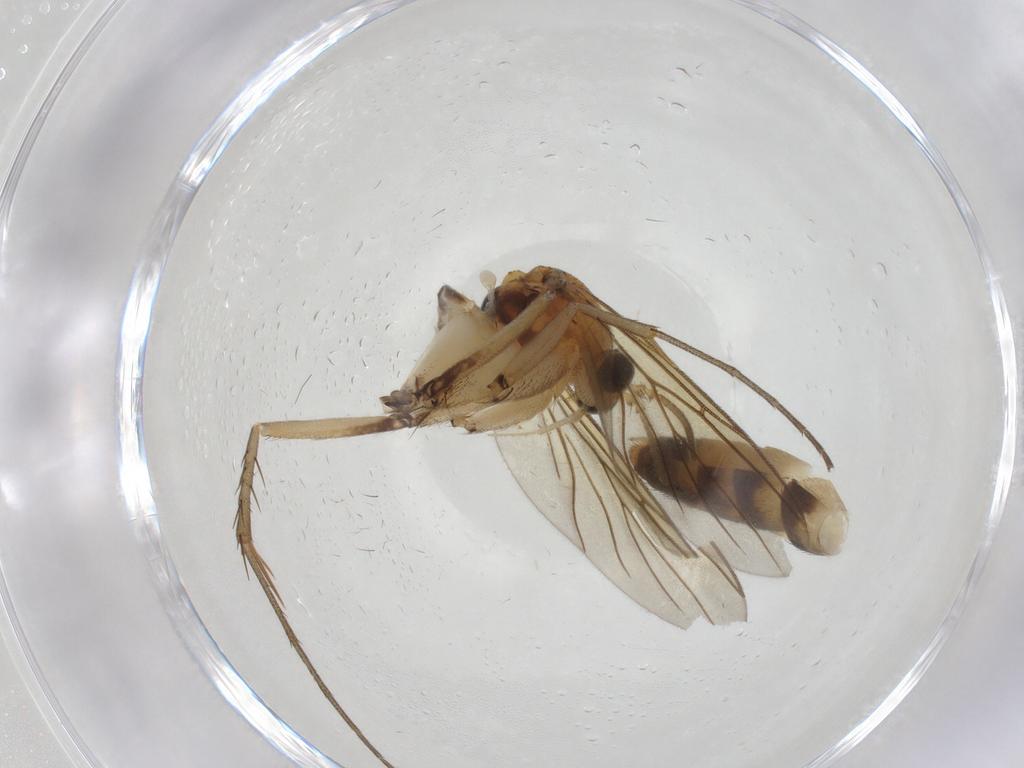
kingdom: Animalia
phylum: Arthropoda
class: Insecta
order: Diptera
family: Mycetophilidae
